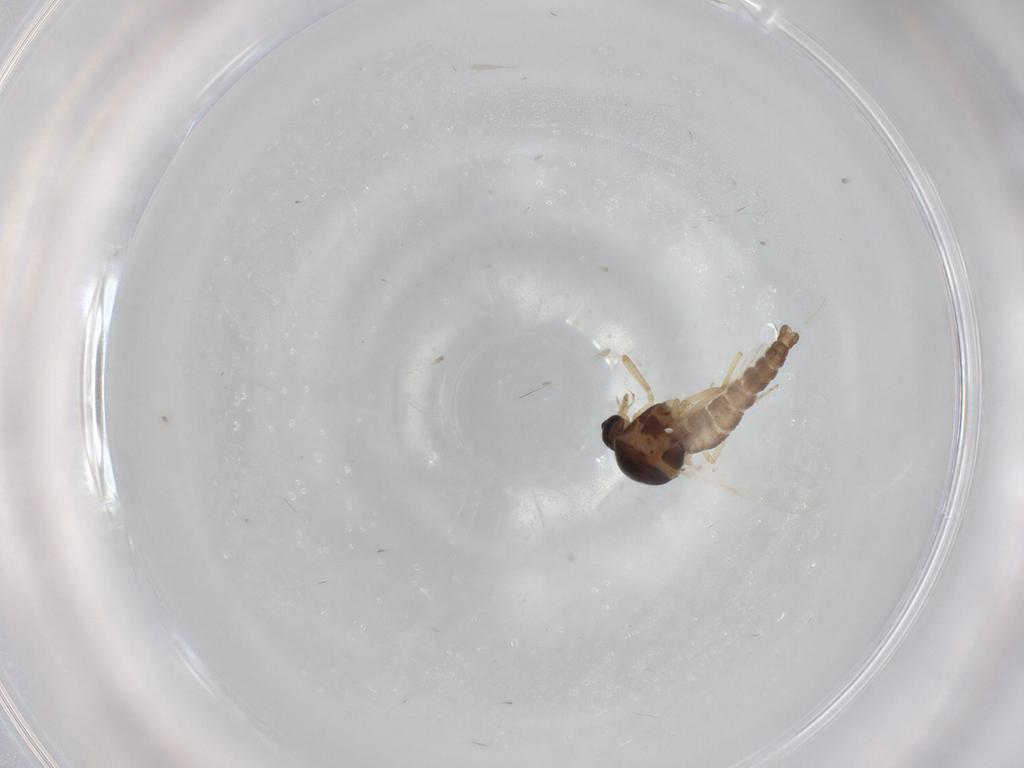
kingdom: Animalia
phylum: Arthropoda
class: Insecta
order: Diptera
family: Ceratopogonidae
